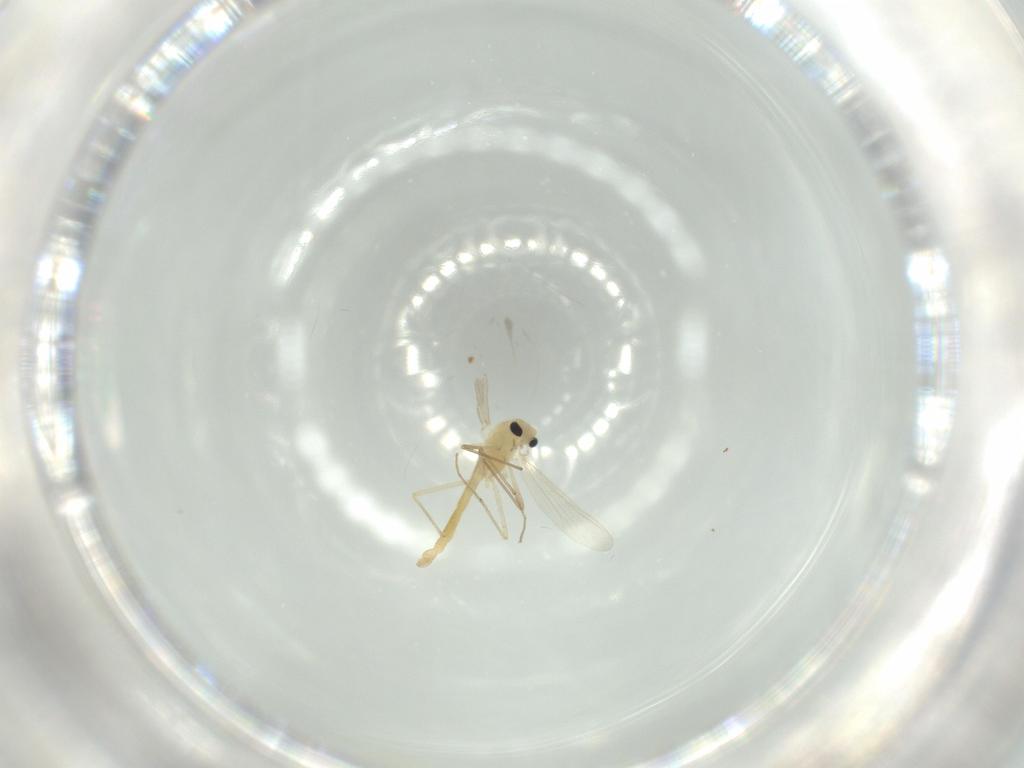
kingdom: Animalia
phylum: Arthropoda
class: Insecta
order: Diptera
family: Chironomidae
